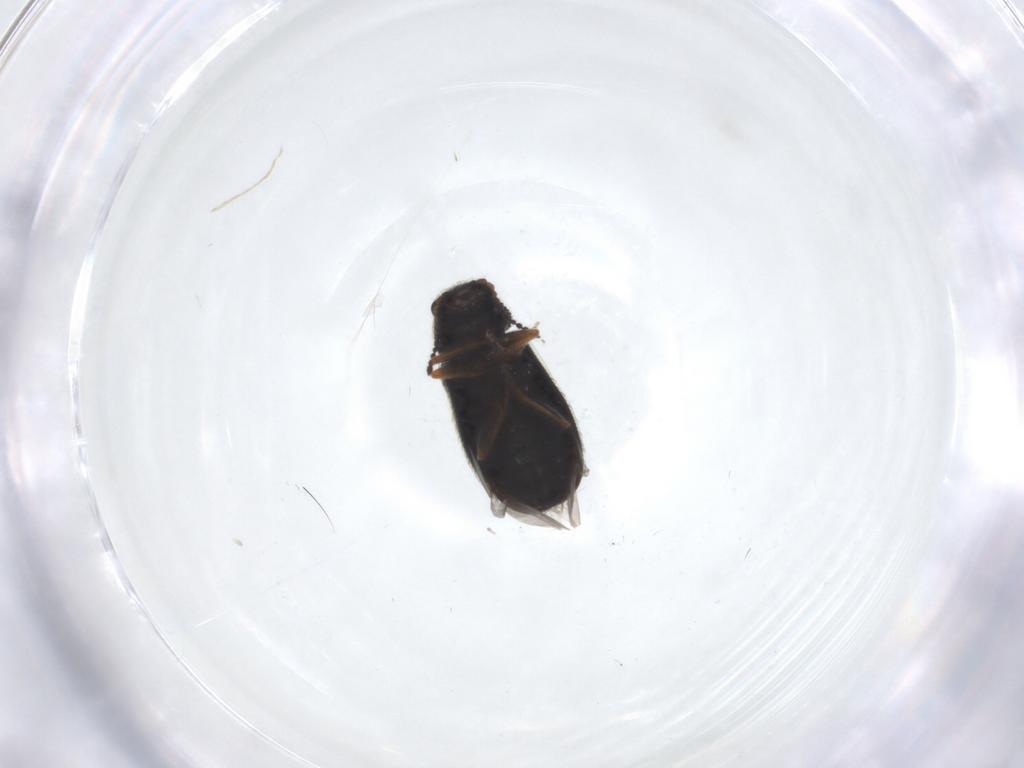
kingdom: Animalia
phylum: Arthropoda
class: Insecta
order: Coleoptera
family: Melyridae
